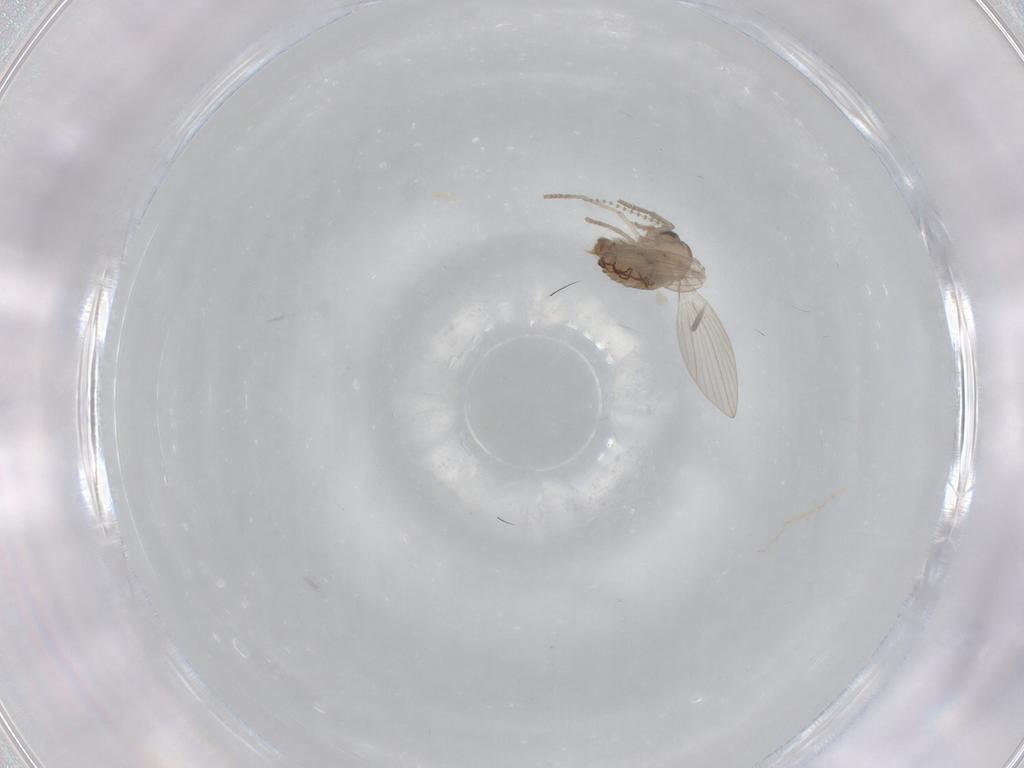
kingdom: Animalia
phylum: Arthropoda
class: Insecta
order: Diptera
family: Psychodidae
